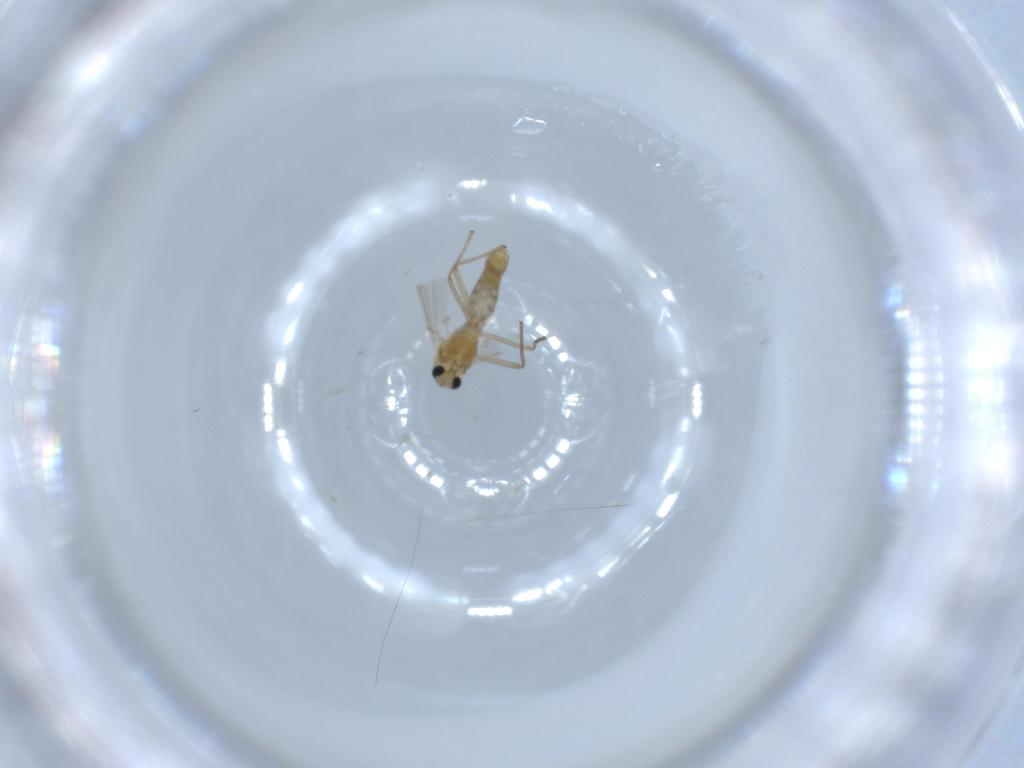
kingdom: Animalia
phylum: Arthropoda
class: Insecta
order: Diptera
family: Chironomidae
